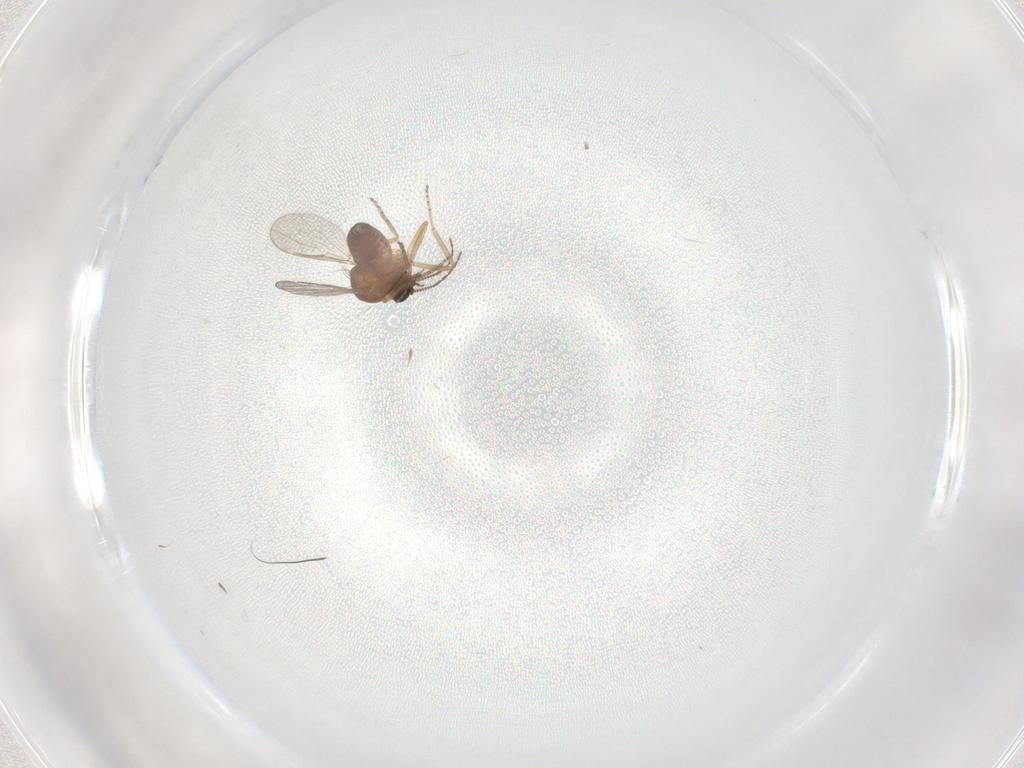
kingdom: Animalia
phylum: Arthropoda
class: Insecta
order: Diptera
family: Ceratopogonidae
